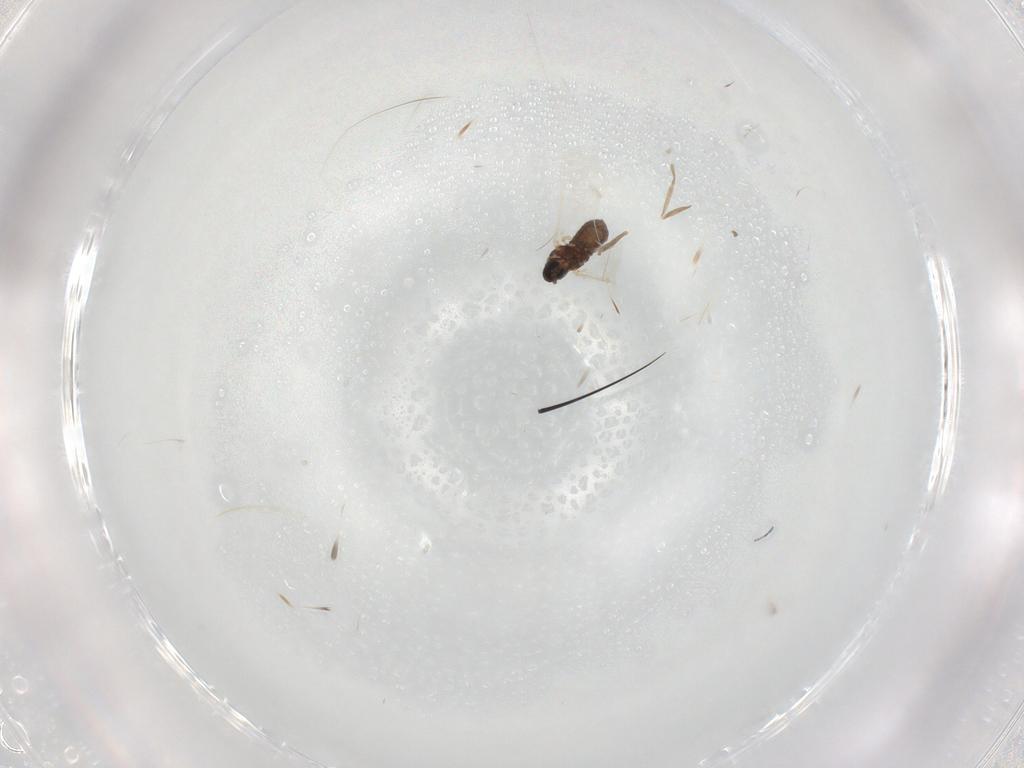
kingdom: Animalia
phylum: Arthropoda
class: Insecta
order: Diptera
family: Cecidomyiidae
